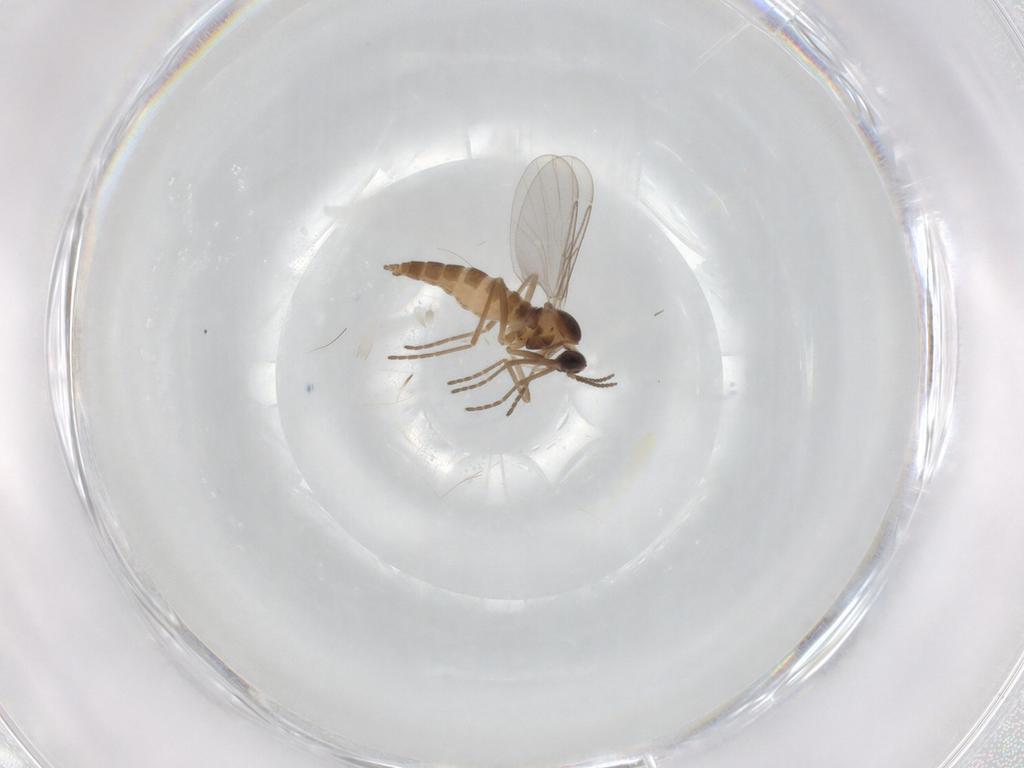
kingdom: Animalia
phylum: Arthropoda
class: Insecta
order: Diptera
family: Cecidomyiidae
